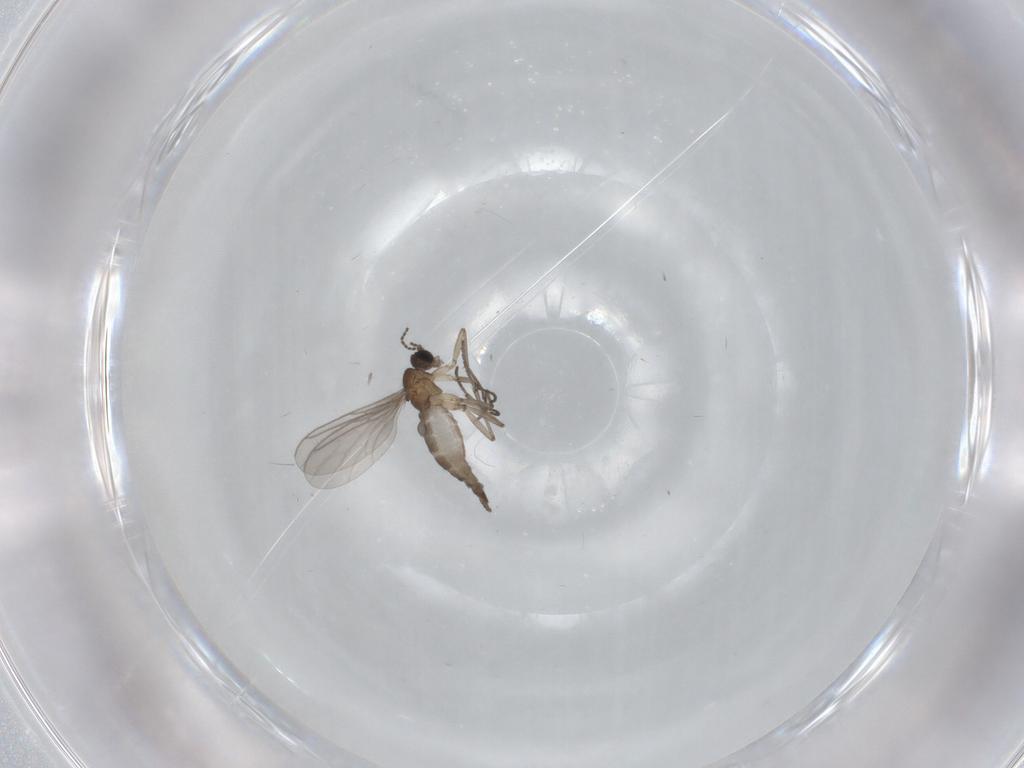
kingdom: Animalia
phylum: Arthropoda
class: Insecta
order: Diptera
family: Sciaridae
